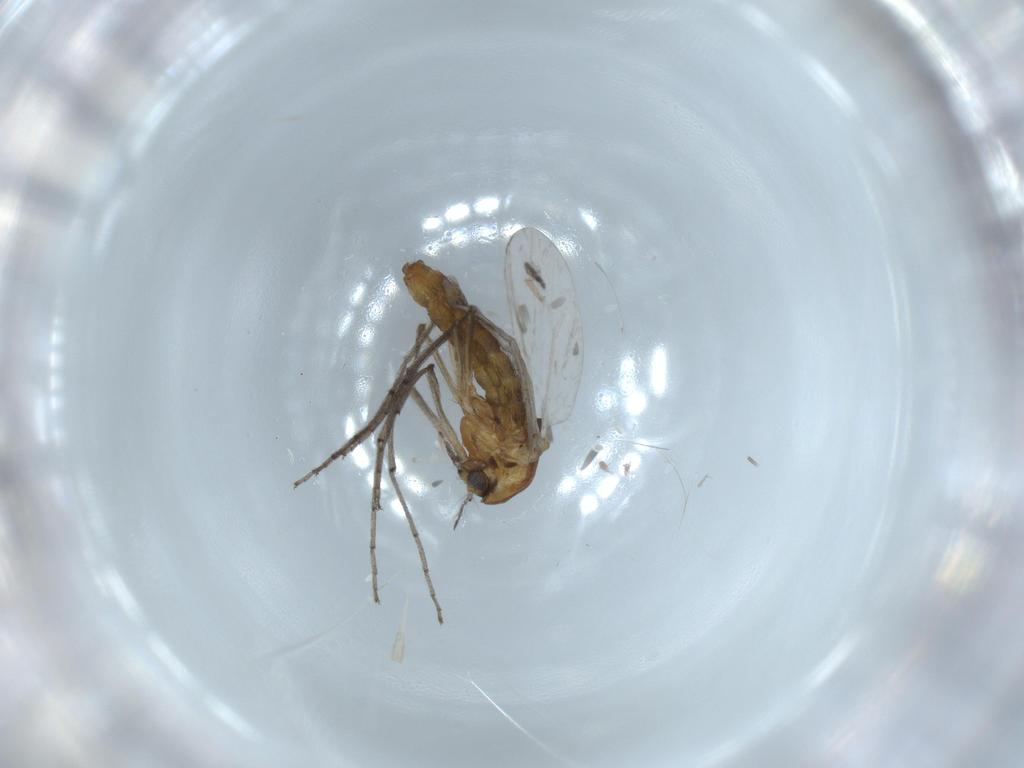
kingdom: Animalia
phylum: Arthropoda
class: Insecta
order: Diptera
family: Chironomidae
